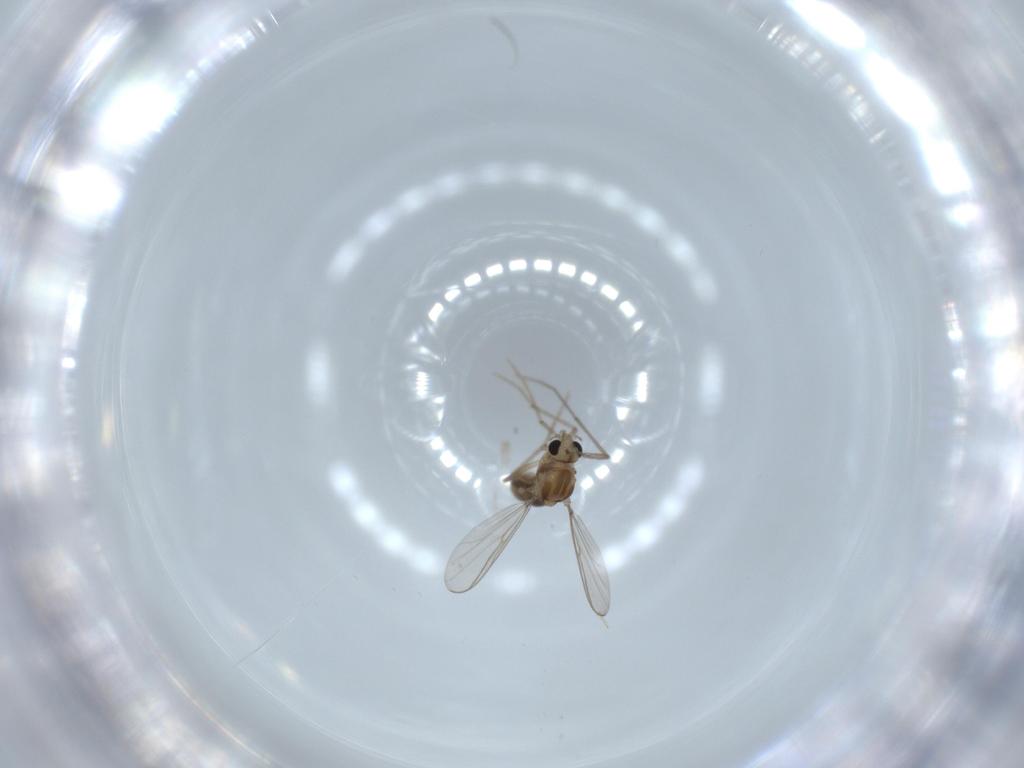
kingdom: Animalia
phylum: Arthropoda
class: Insecta
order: Diptera
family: Chironomidae
